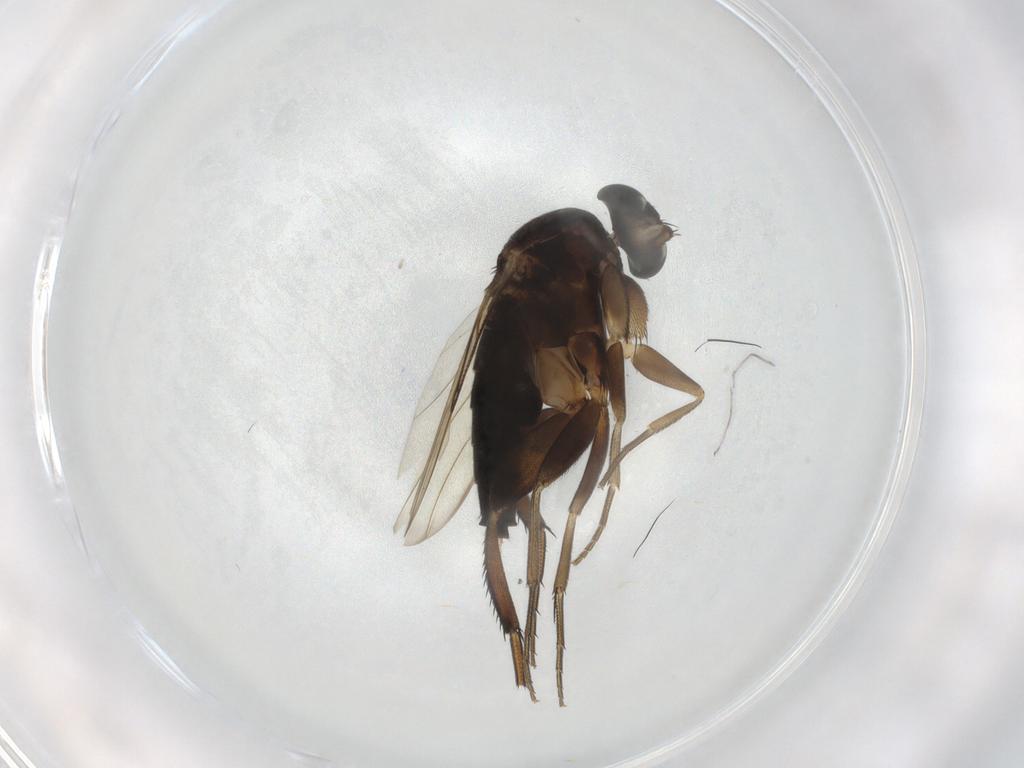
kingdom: Animalia
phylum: Arthropoda
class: Insecta
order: Diptera
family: Phoridae
